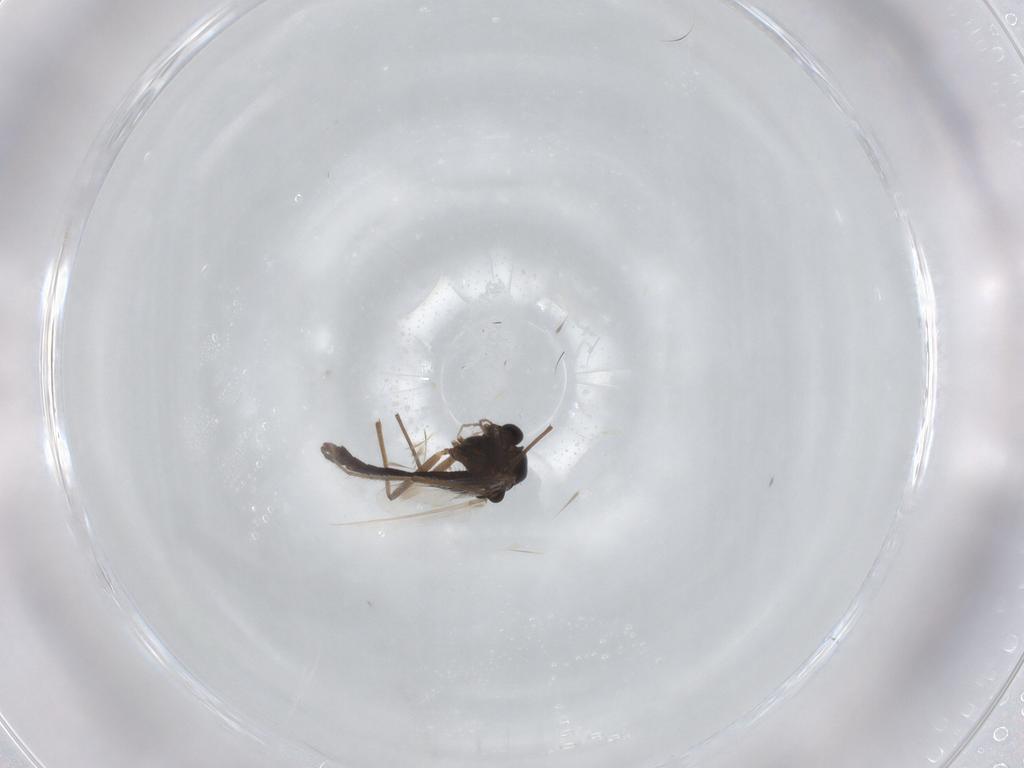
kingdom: Animalia
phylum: Arthropoda
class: Insecta
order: Diptera
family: Chironomidae
